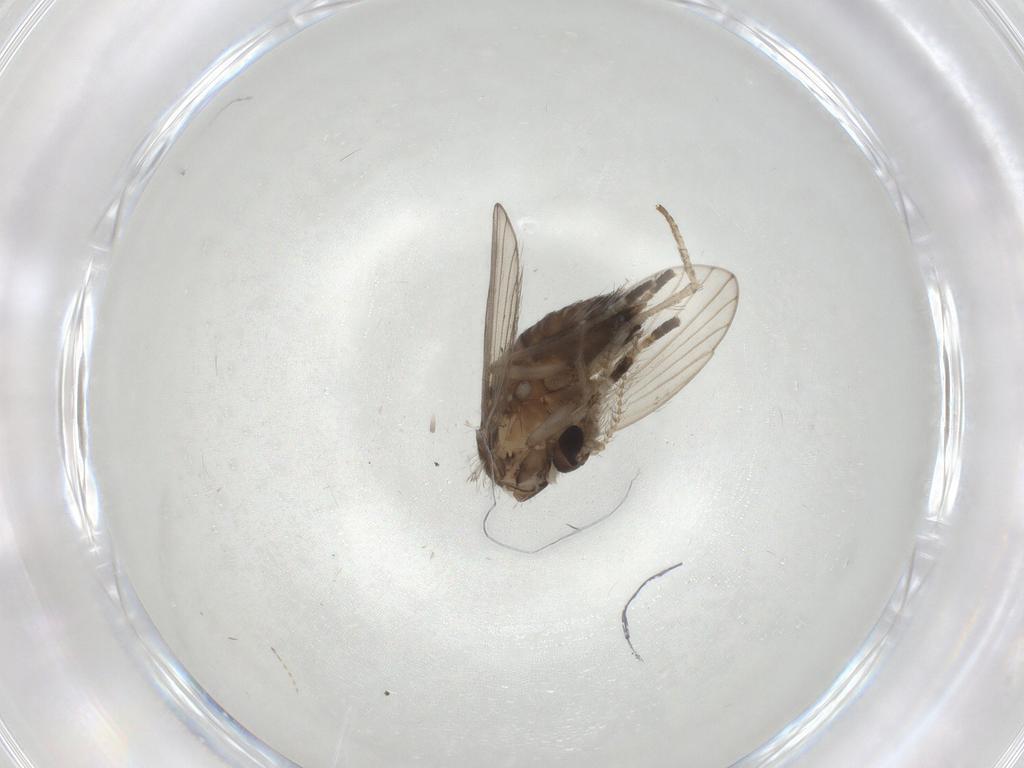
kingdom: Animalia
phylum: Arthropoda
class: Insecta
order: Diptera
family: Psychodidae
